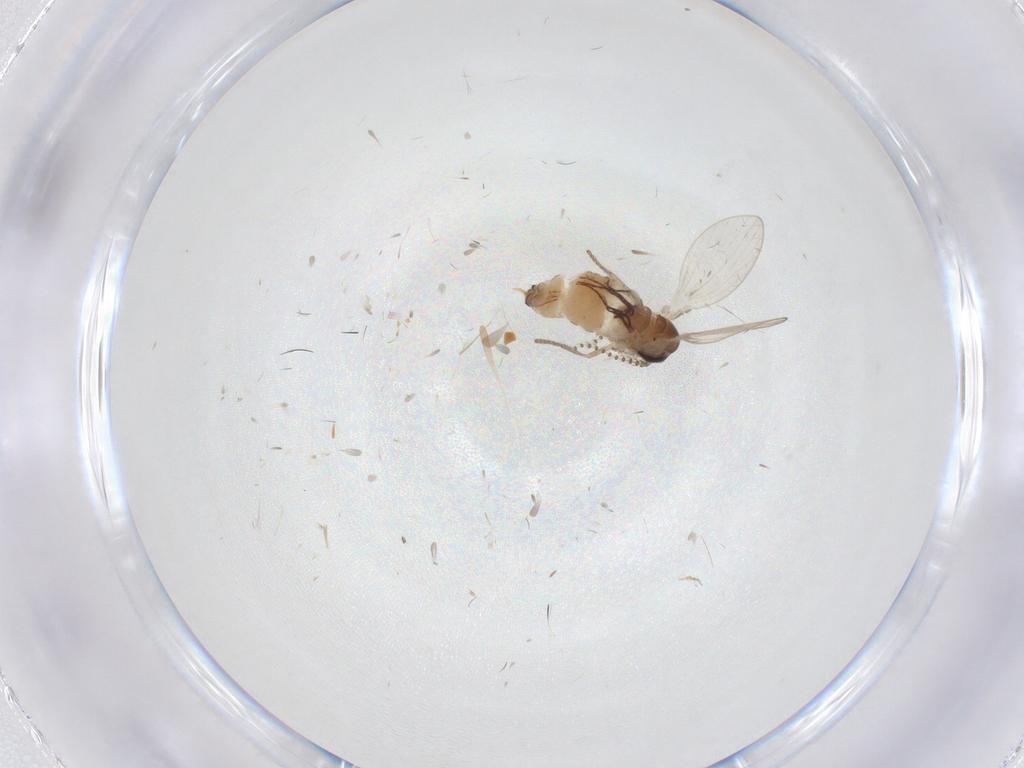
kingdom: Animalia
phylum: Arthropoda
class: Insecta
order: Diptera
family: Psychodidae
